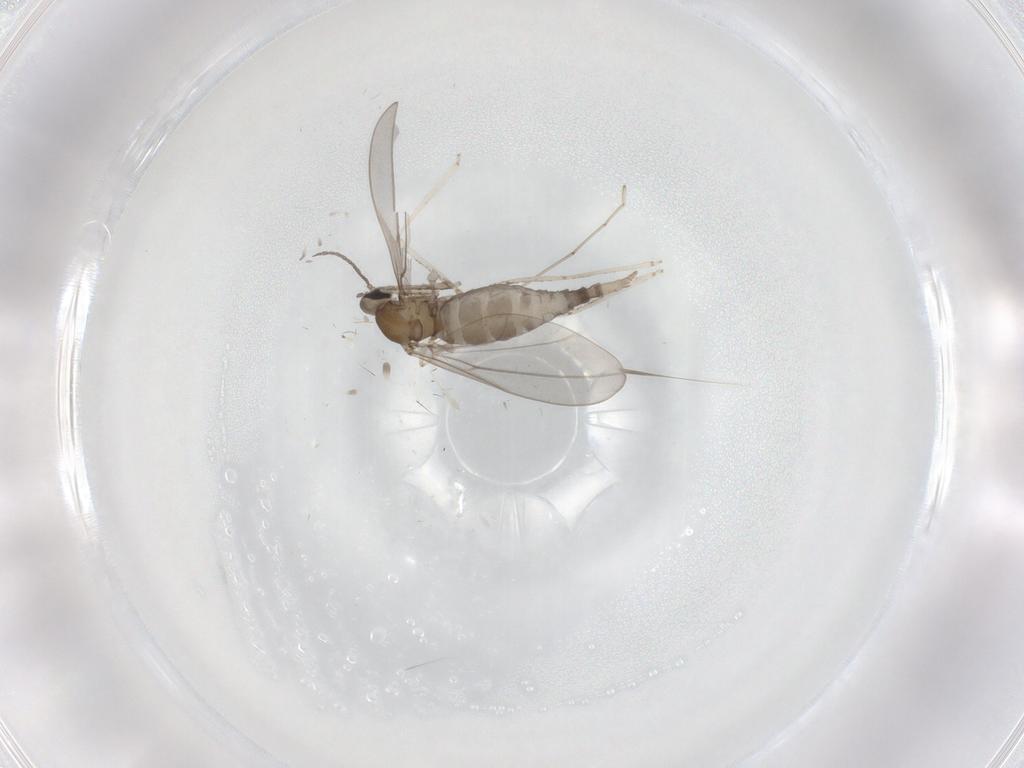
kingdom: Animalia
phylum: Arthropoda
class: Insecta
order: Diptera
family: Cecidomyiidae
